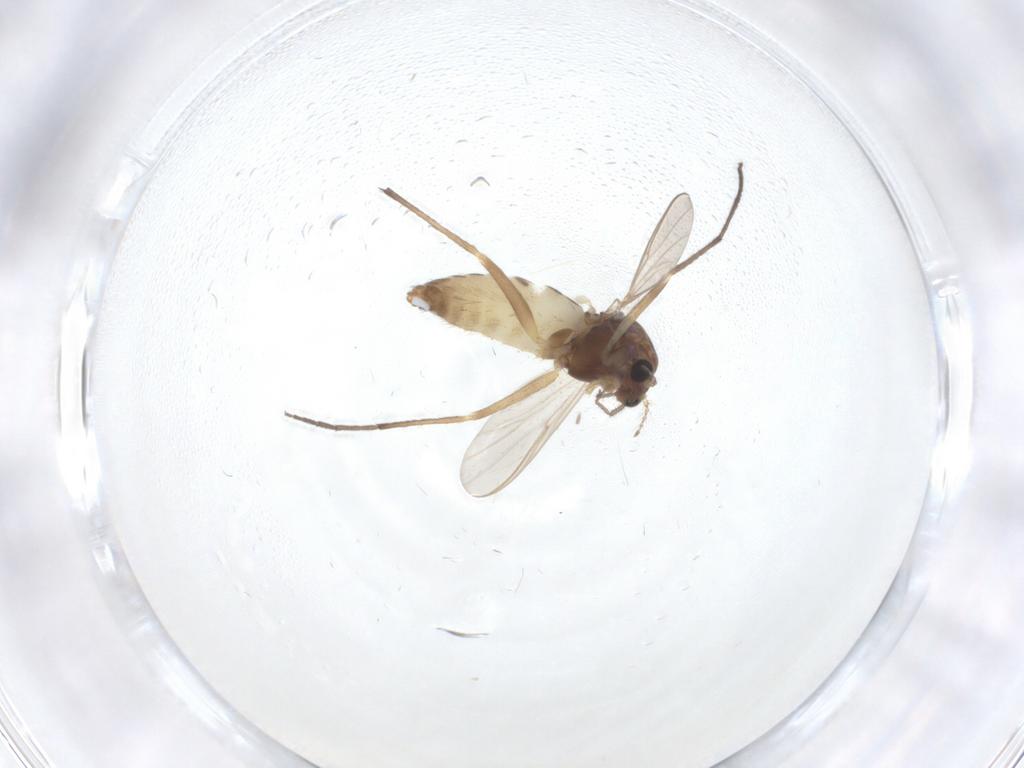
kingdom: Animalia
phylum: Arthropoda
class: Insecta
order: Diptera
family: Chironomidae
